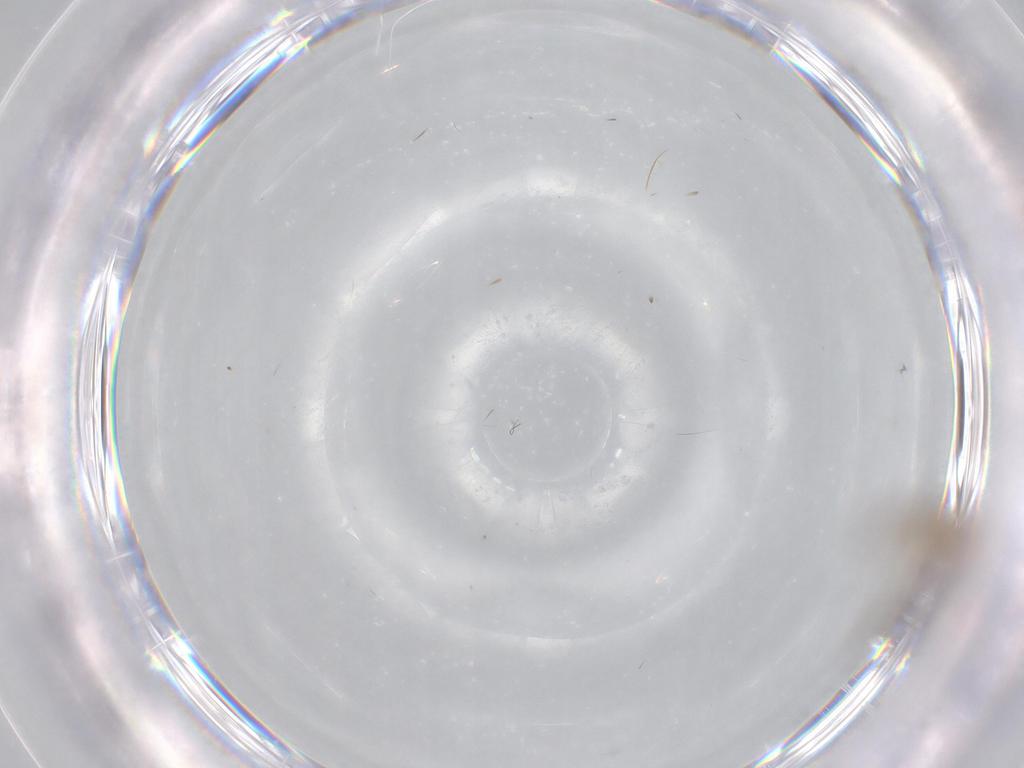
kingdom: Animalia
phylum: Arthropoda
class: Insecta
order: Diptera
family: Chironomidae
